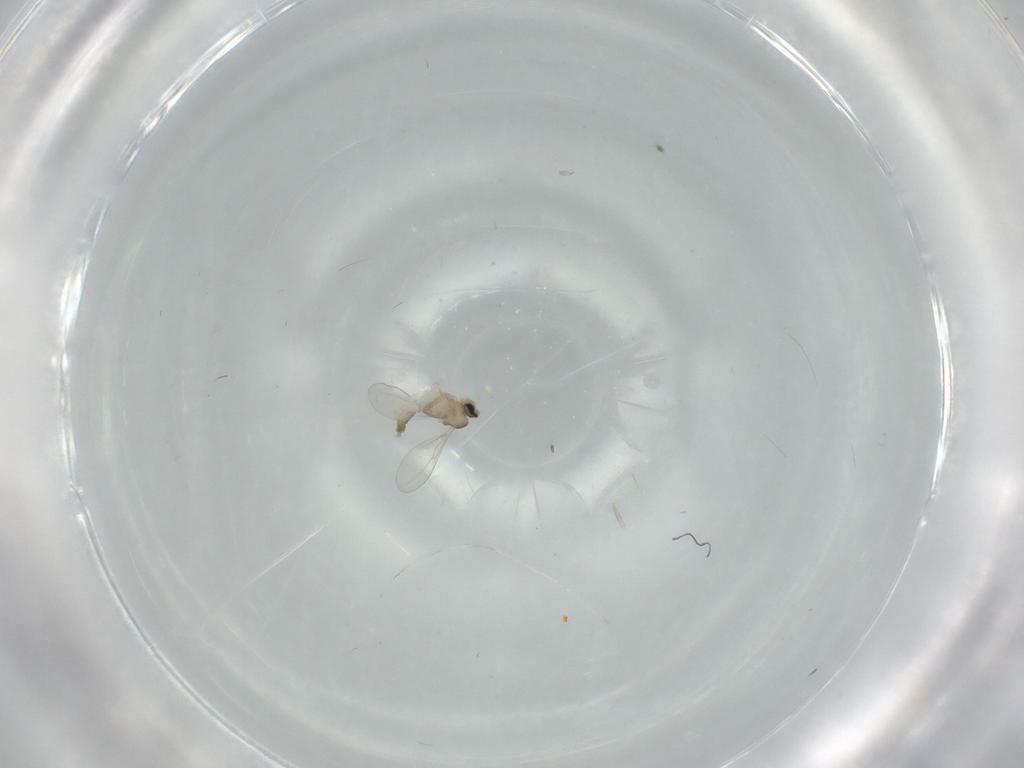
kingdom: Animalia
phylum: Arthropoda
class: Insecta
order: Diptera
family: Cecidomyiidae
